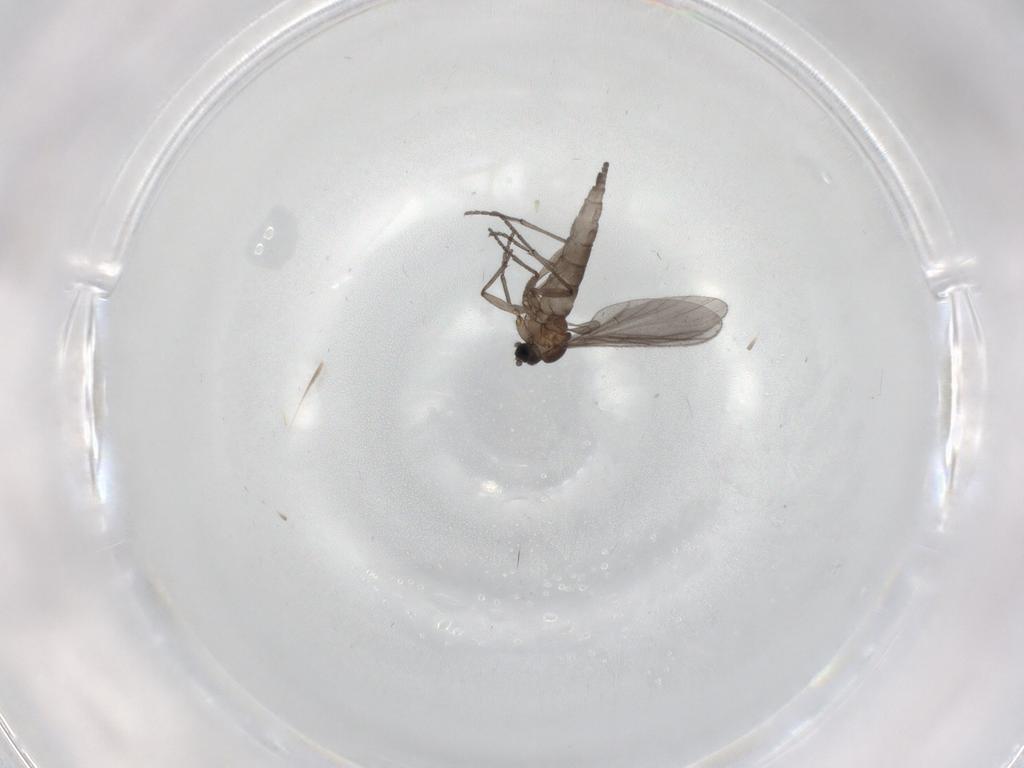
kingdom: Animalia
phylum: Arthropoda
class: Insecta
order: Diptera
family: Sciaridae
